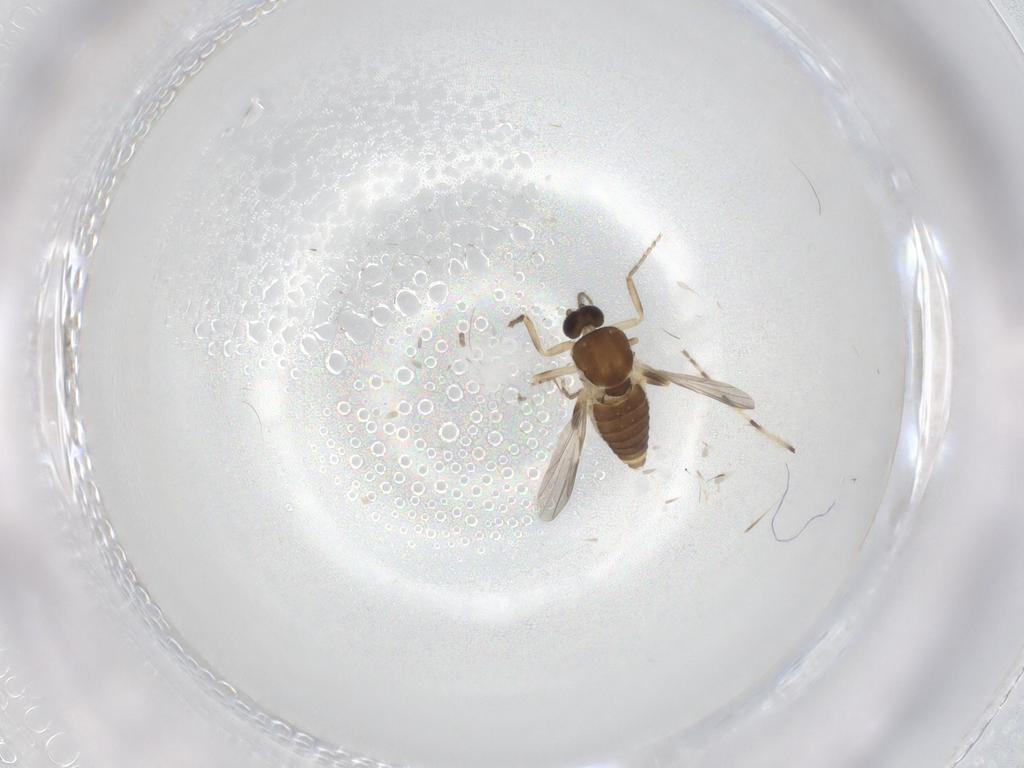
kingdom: Animalia
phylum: Arthropoda
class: Insecta
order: Diptera
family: Ceratopogonidae
